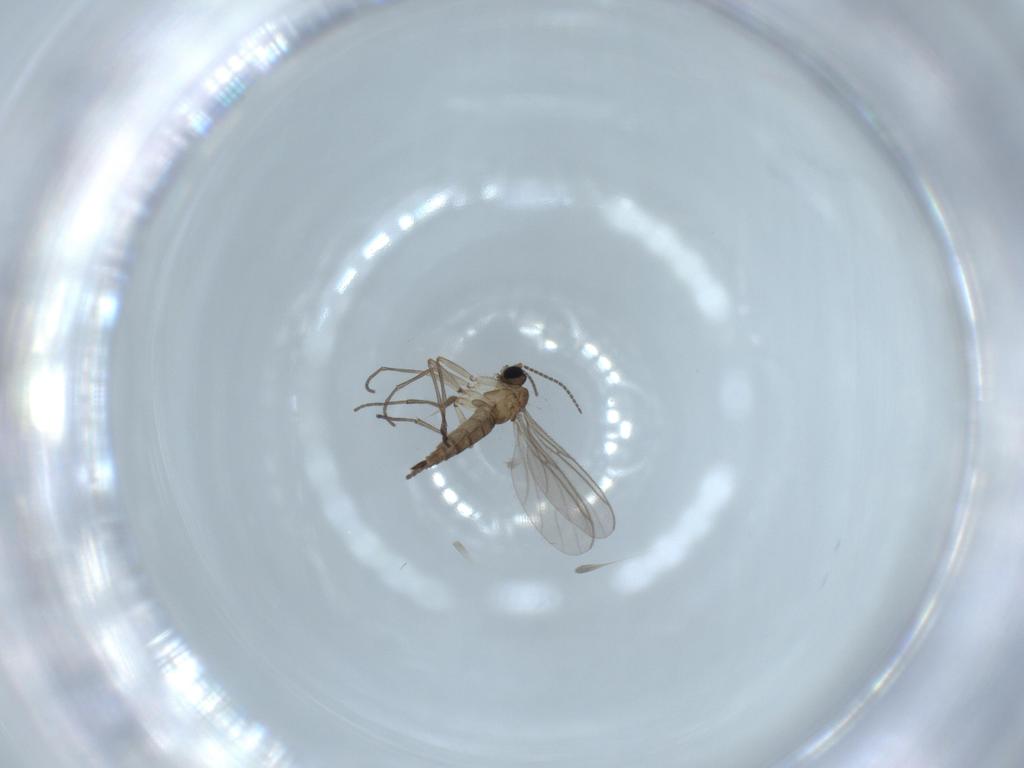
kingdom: Animalia
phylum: Arthropoda
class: Insecta
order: Diptera
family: Sciaridae
